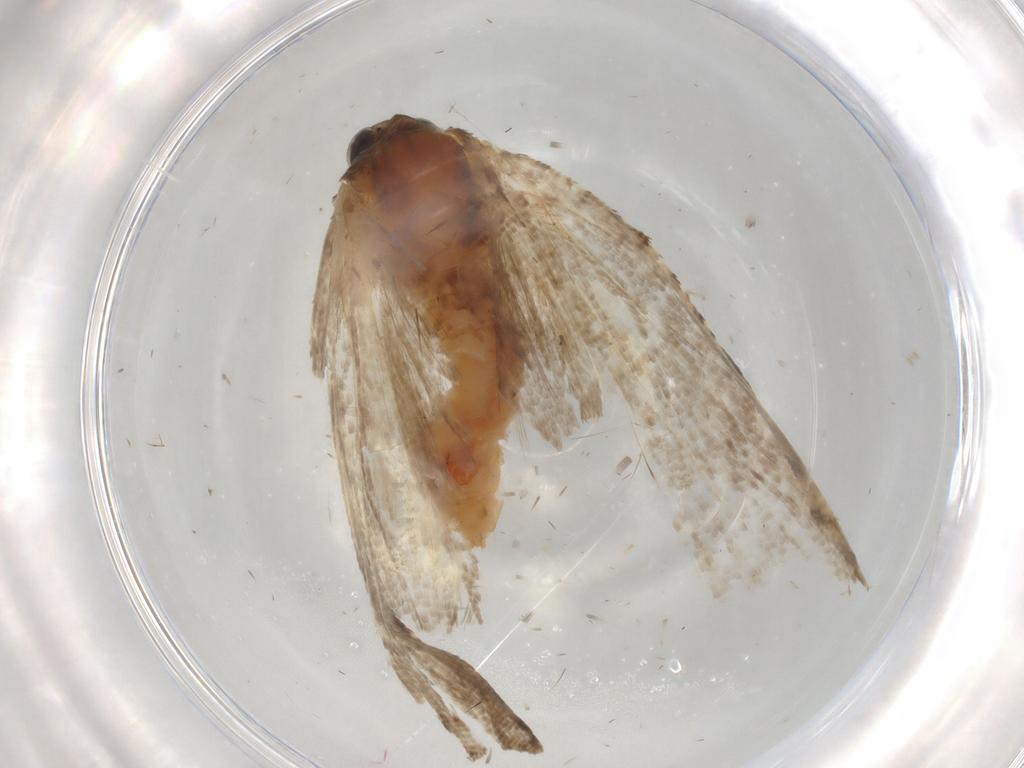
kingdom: Animalia
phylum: Arthropoda
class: Insecta
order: Lepidoptera
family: Tortricidae
